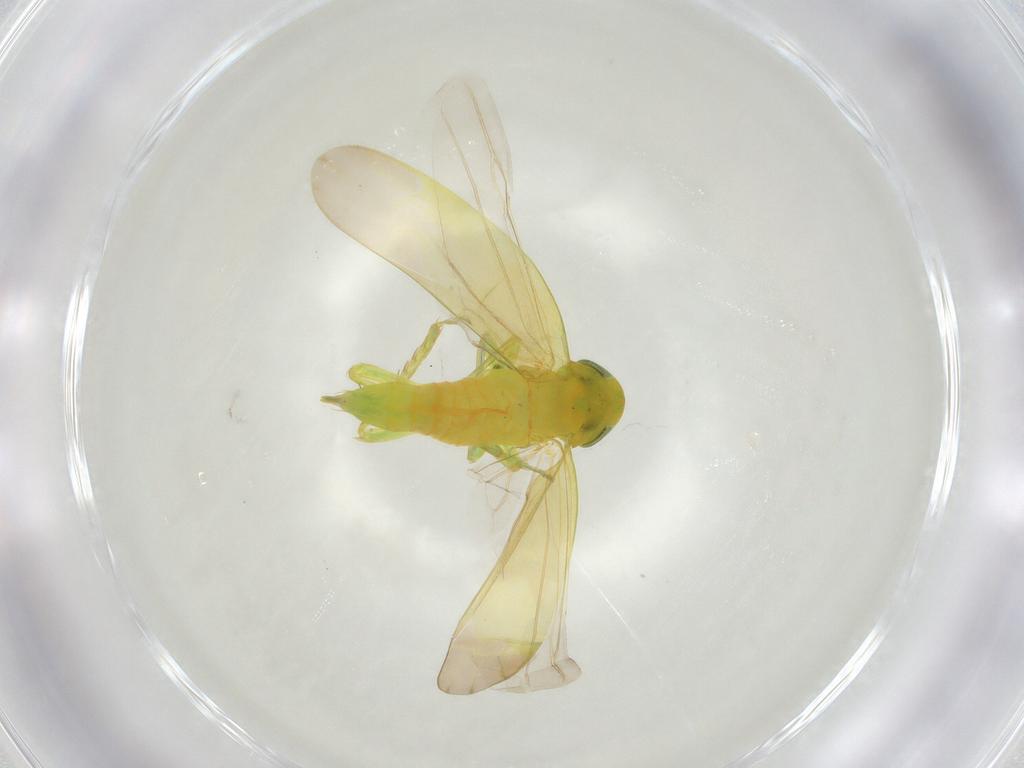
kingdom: Animalia
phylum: Arthropoda
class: Insecta
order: Hemiptera
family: Cicadellidae
